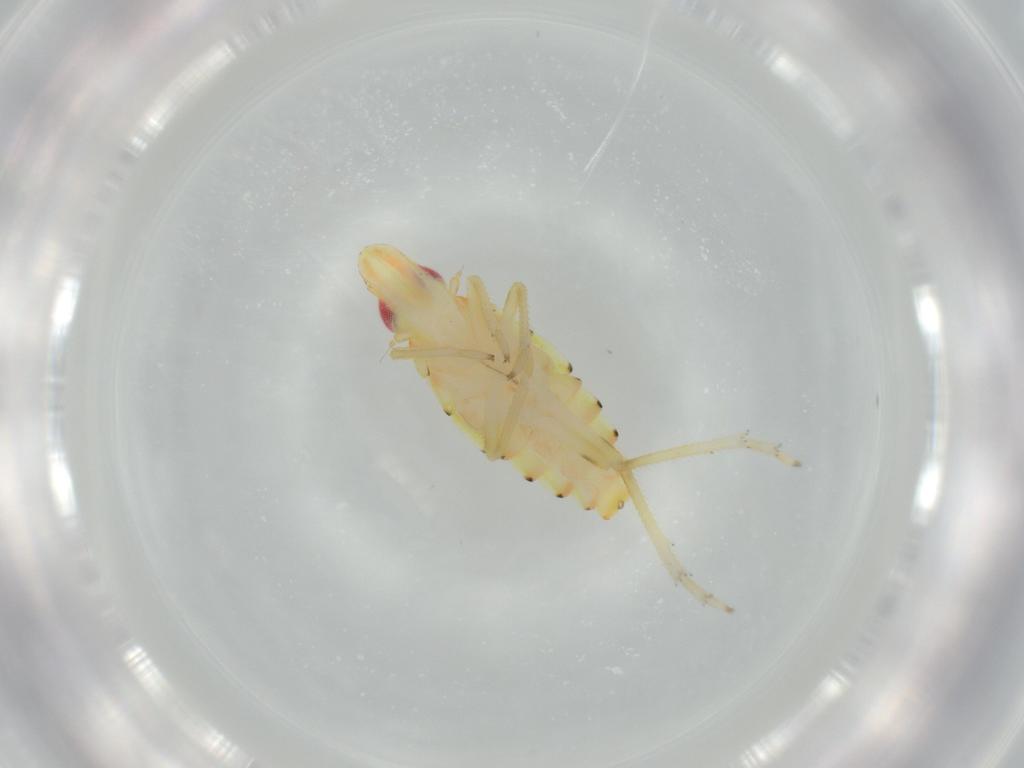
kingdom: Animalia
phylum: Arthropoda
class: Insecta
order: Hemiptera
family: Tropiduchidae
